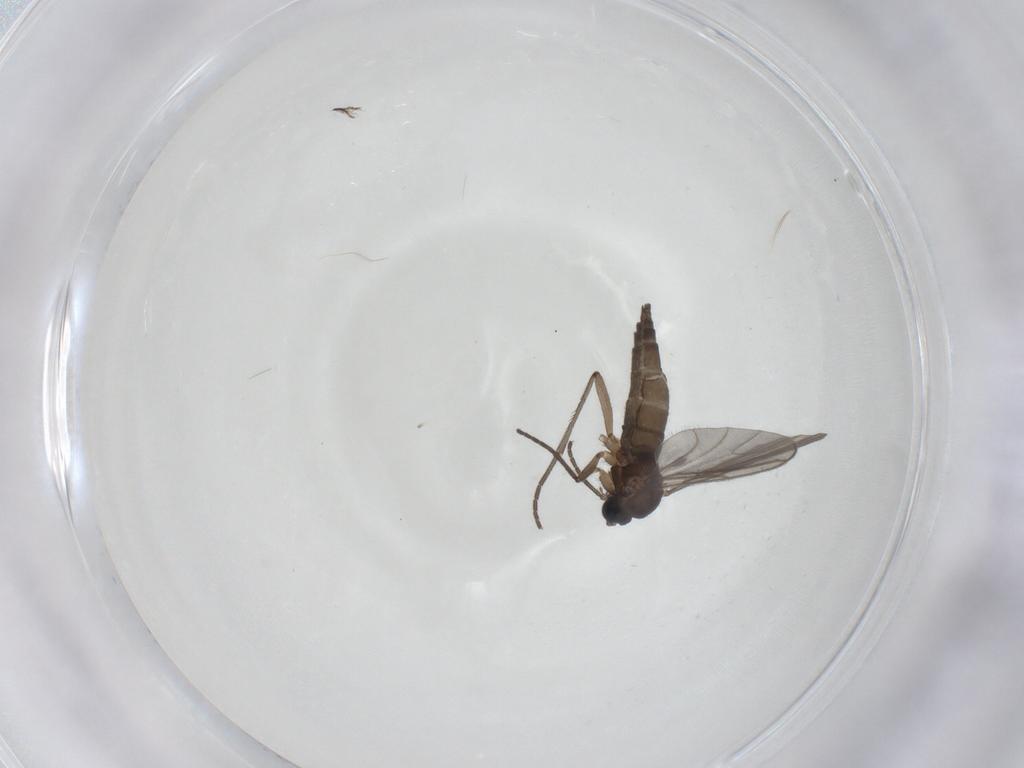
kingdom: Animalia
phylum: Arthropoda
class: Insecta
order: Diptera
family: Sciaridae
